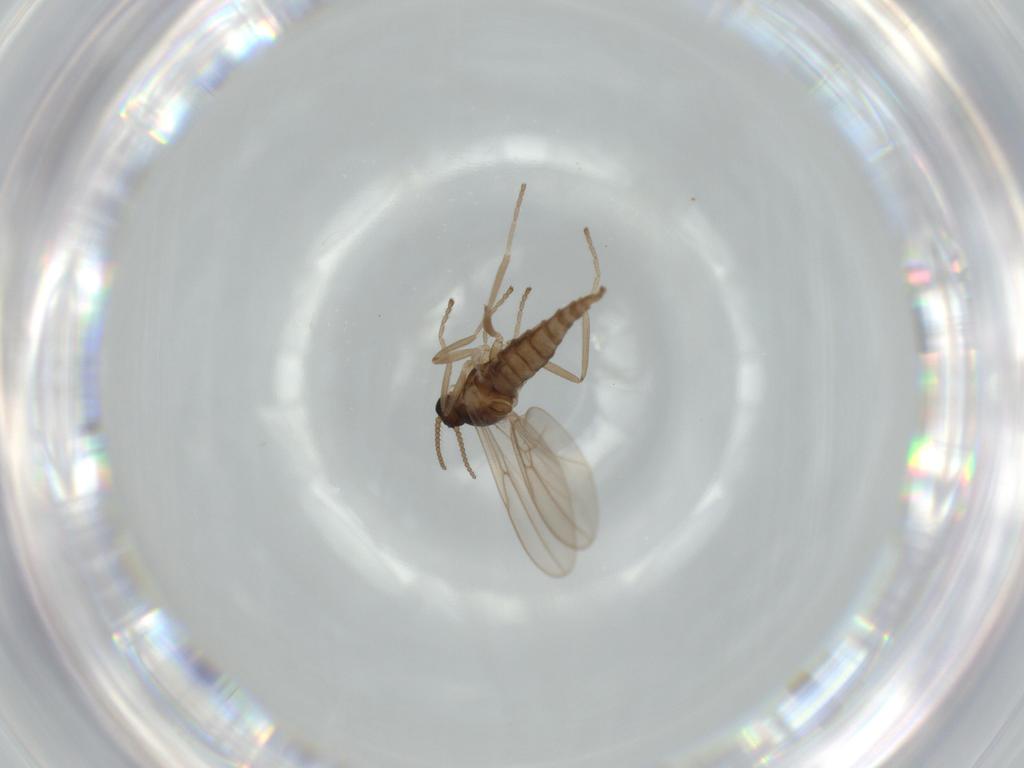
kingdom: Animalia
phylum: Arthropoda
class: Insecta
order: Diptera
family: Cecidomyiidae
